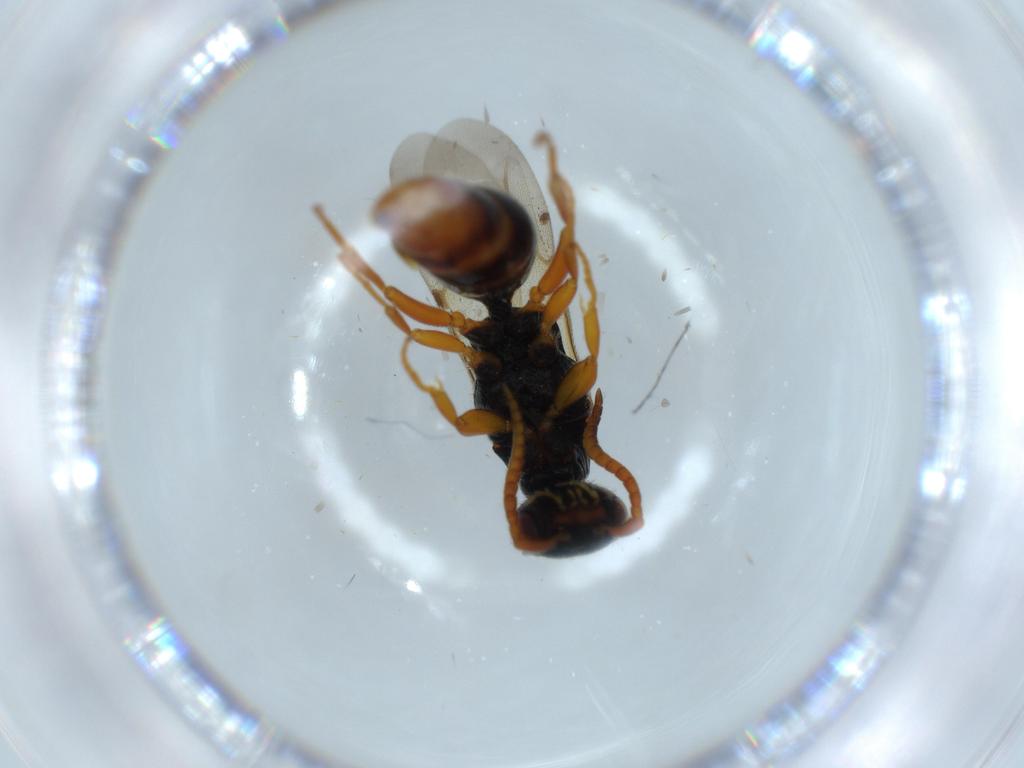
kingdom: Animalia
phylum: Arthropoda
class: Insecta
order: Hymenoptera
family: Bethylidae
